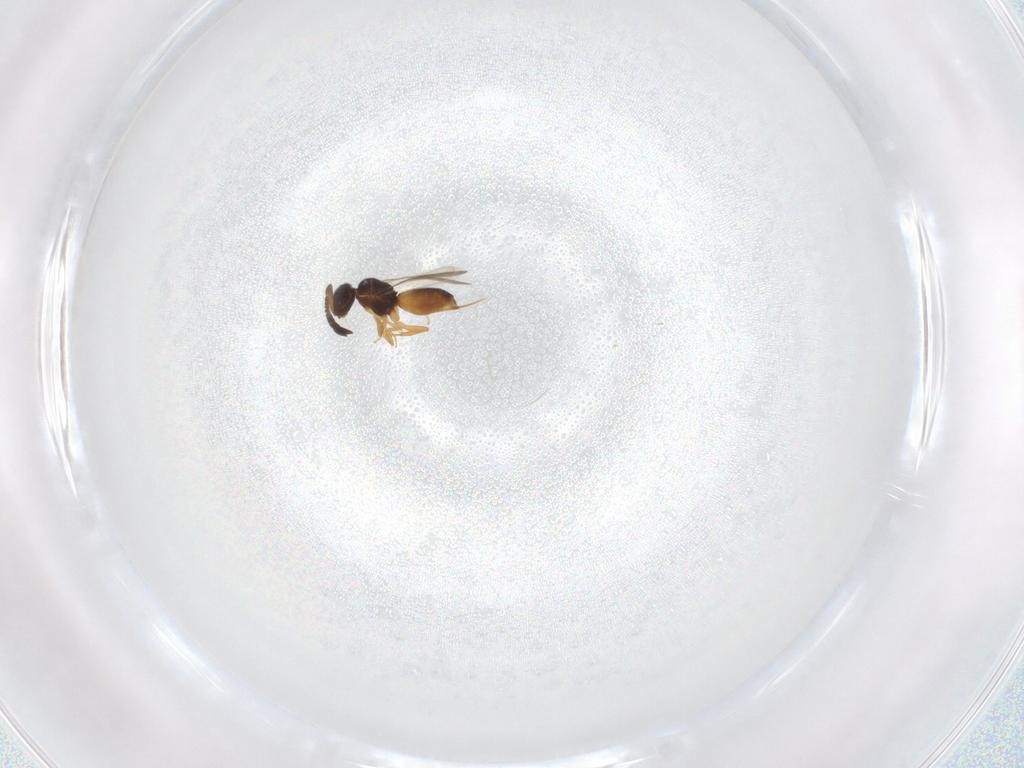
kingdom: Animalia
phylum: Arthropoda
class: Insecta
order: Hymenoptera
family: Ceraphronidae
